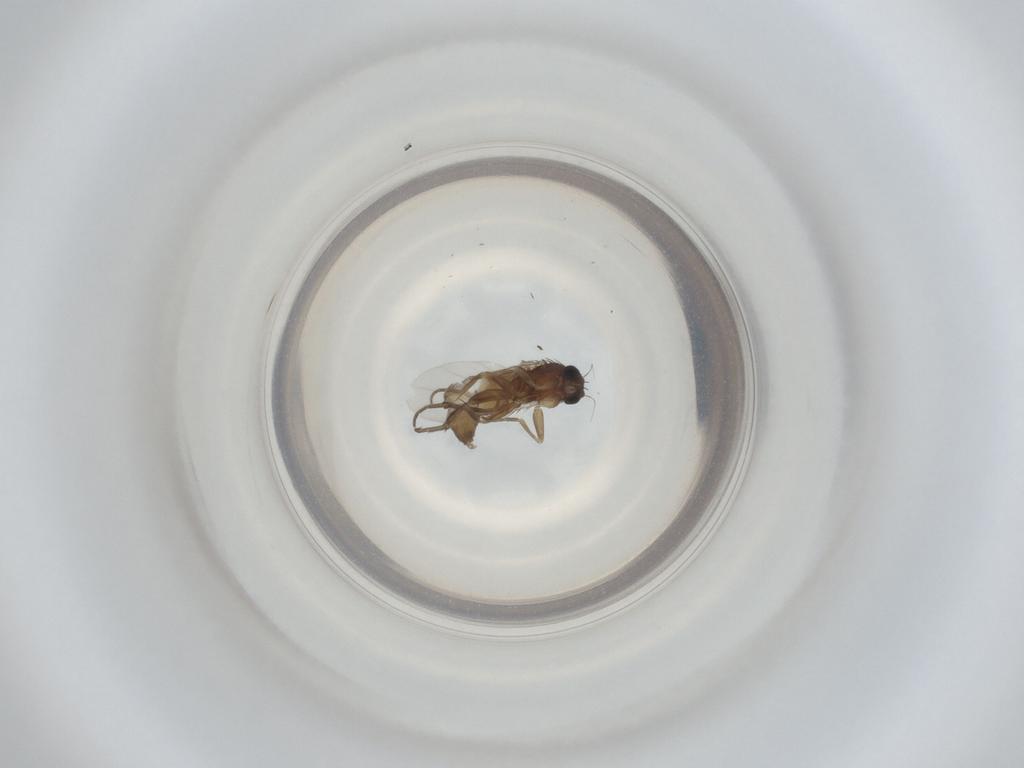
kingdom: Animalia
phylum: Arthropoda
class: Insecta
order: Diptera
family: Phoridae
